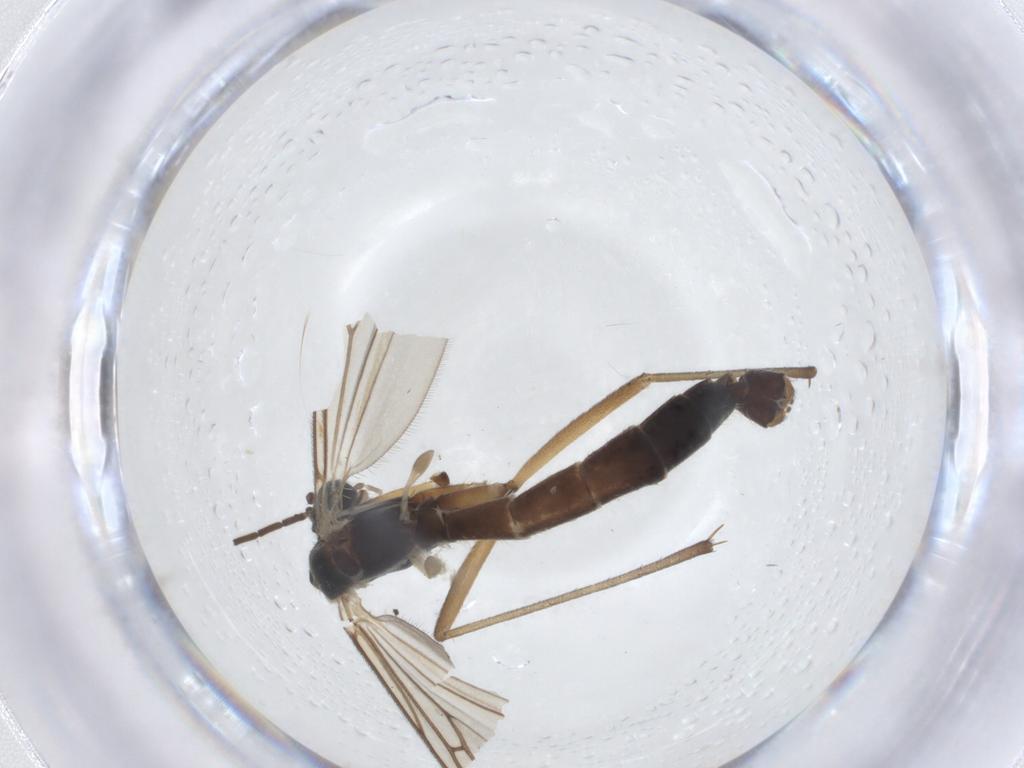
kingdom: Animalia
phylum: Arthropoda
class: Insecta
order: Diptera
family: Mycetophilidae
